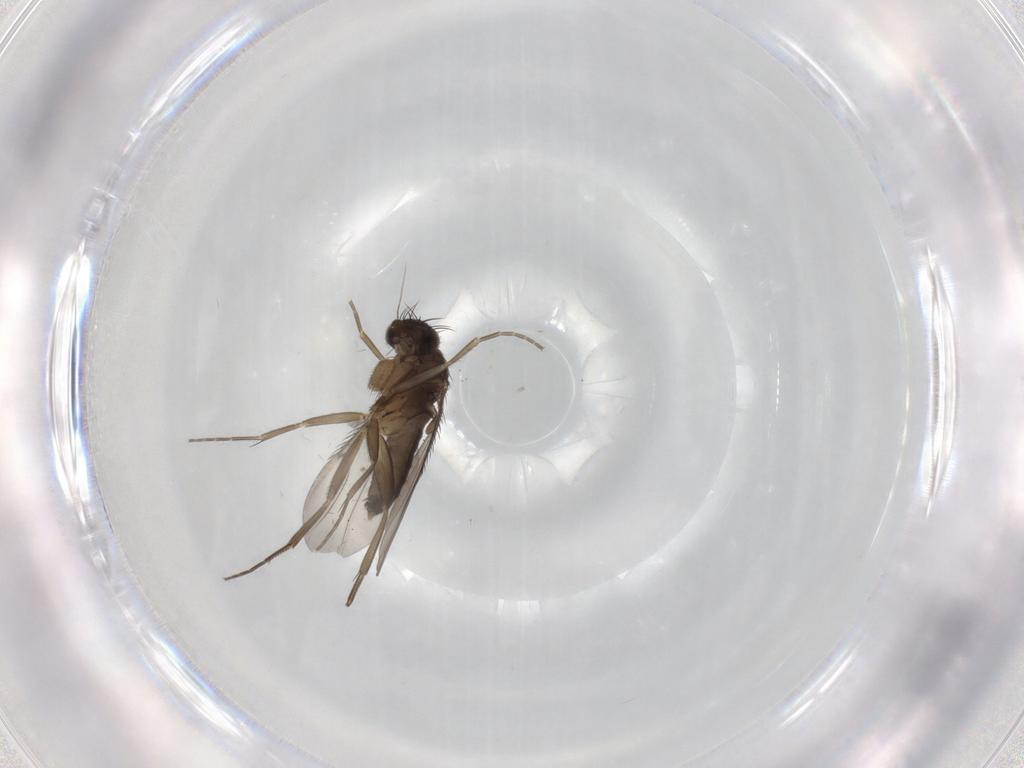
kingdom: Animalia
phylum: Arthropoda
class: Insecta
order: Diptera
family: Phoridae
